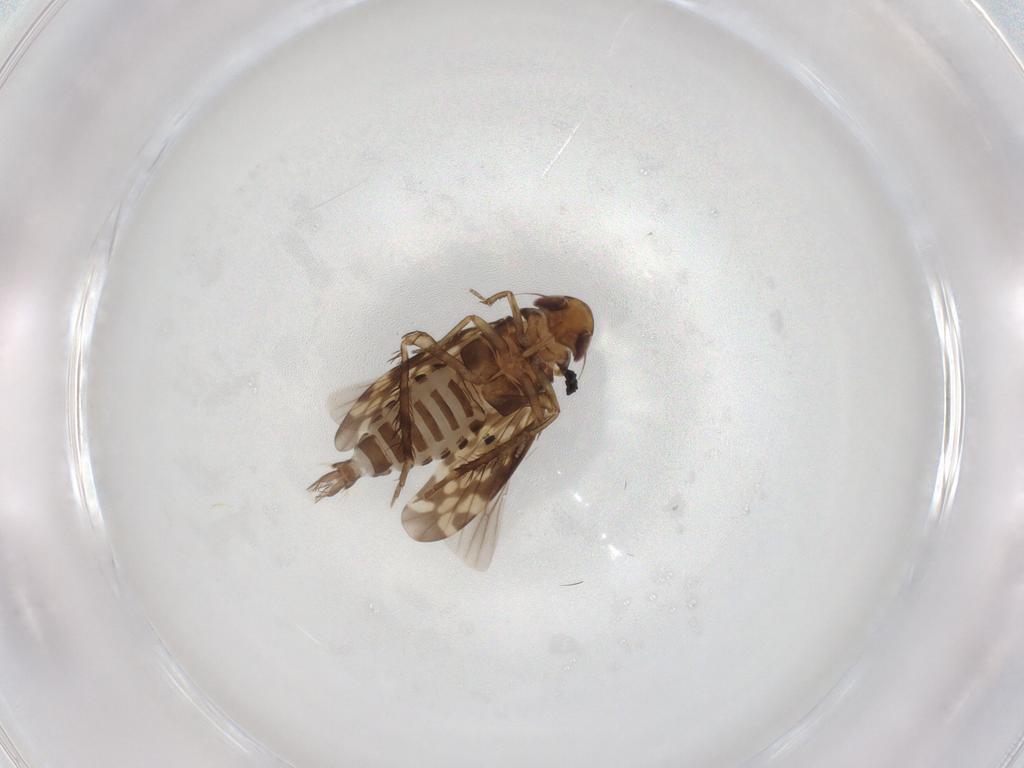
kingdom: Animalia
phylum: Arthropoda
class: Insecta
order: Hemiptera
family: Cicadellidae
